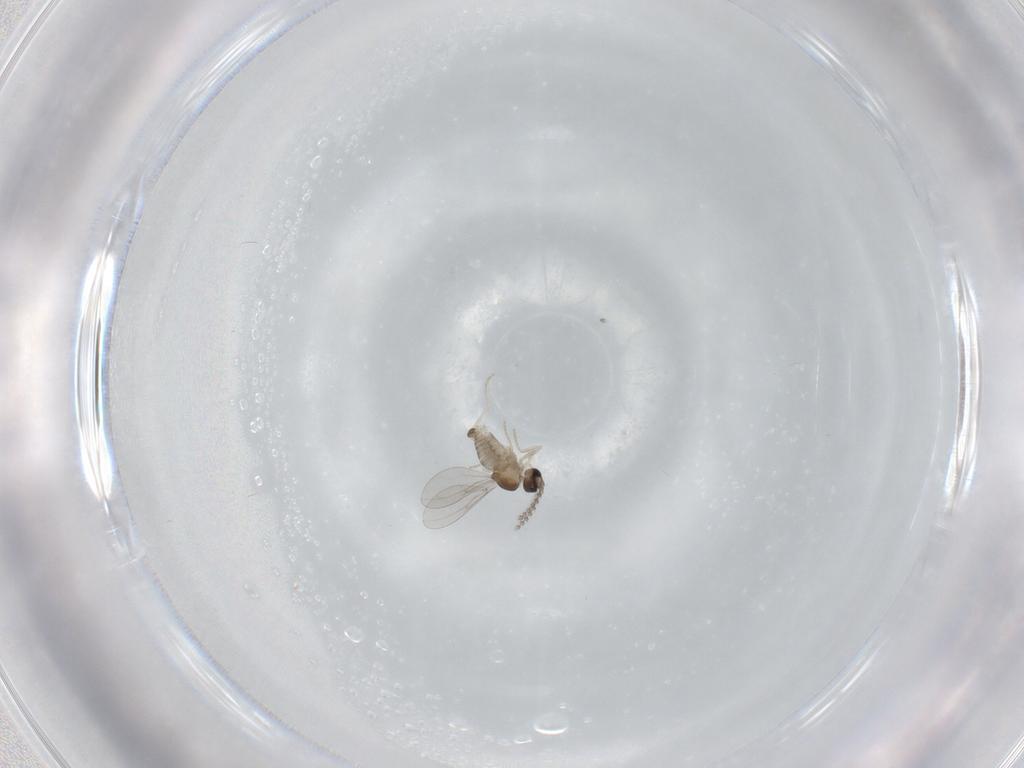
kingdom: Animalia
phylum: Arthropoda
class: Insecta
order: Diptera
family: Cecidomyiidae
